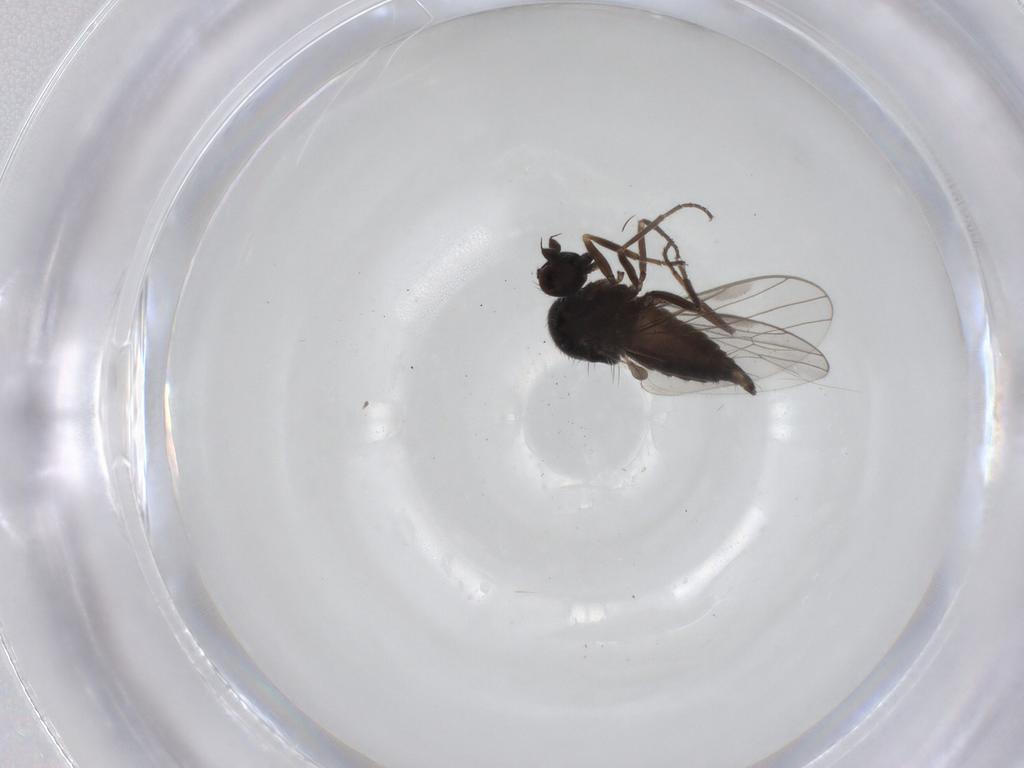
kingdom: Animalia
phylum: Arthropoda
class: Insecta
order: Diptera
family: Hybotidae
